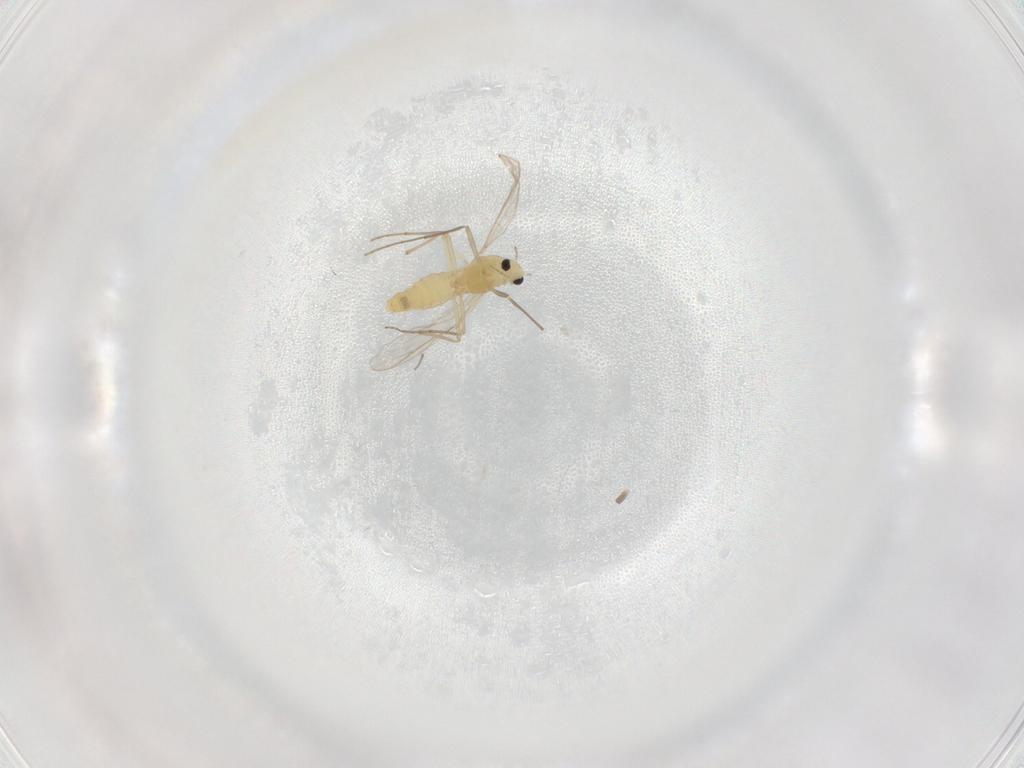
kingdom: Animalia
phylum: Arthropoda
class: Insecta
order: Diptera
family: Chironomidae
